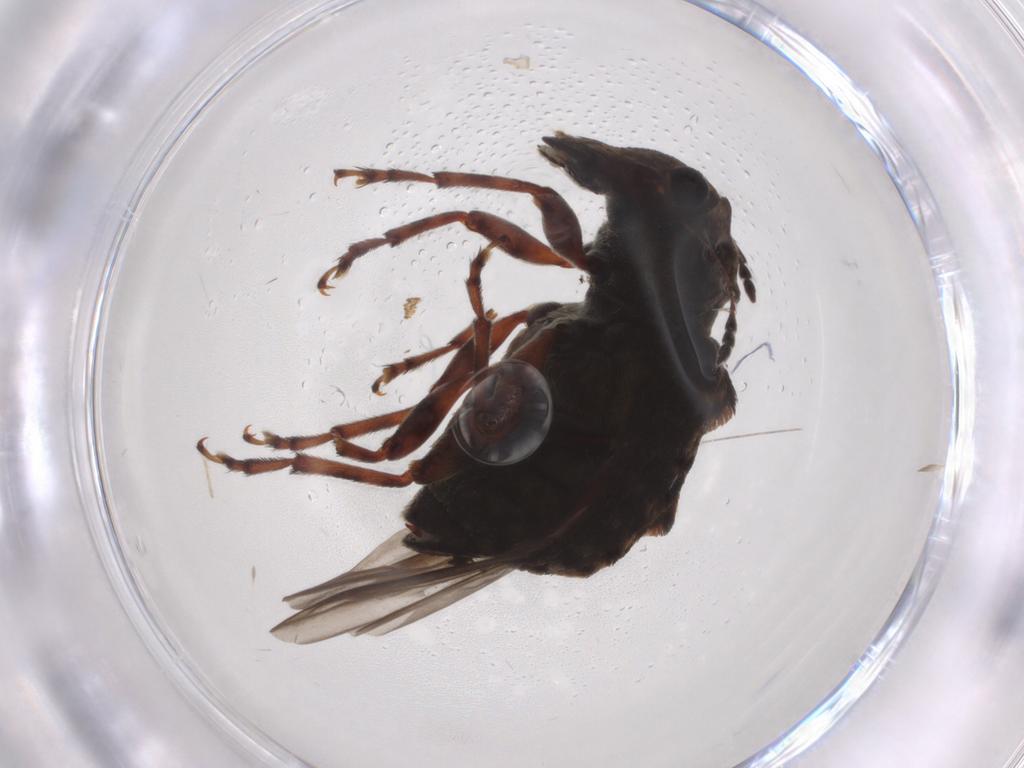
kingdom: Animalia
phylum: Arthropoda
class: Insecta
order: Coleoptera
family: Anthribidae
